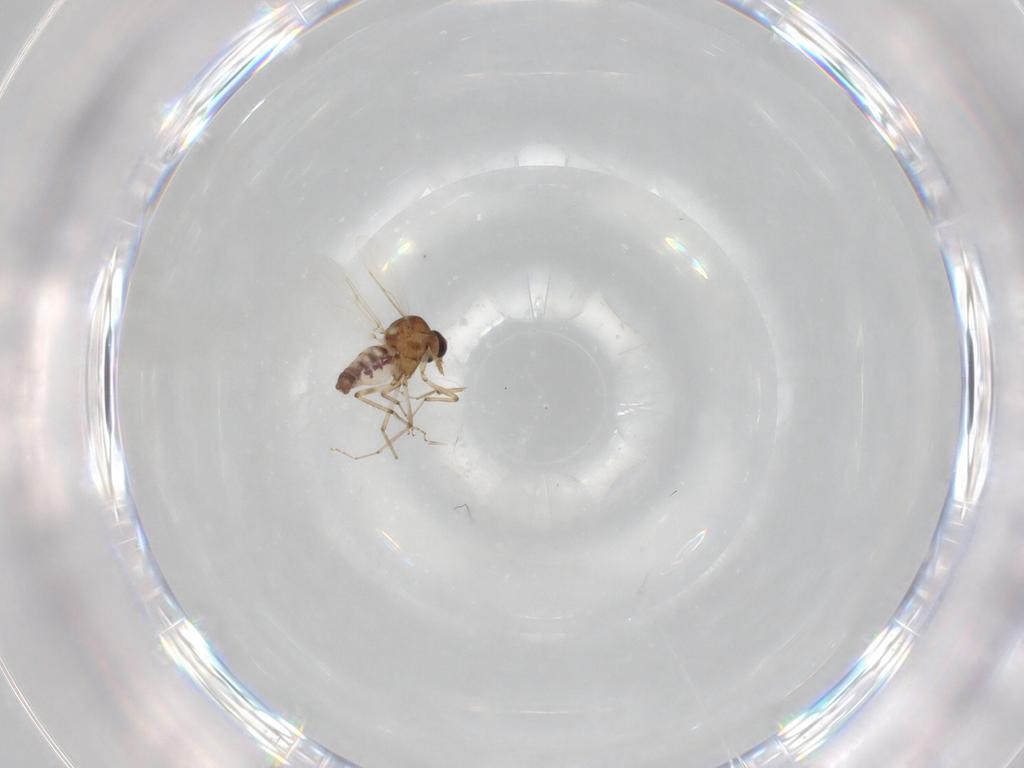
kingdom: Animalia
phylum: Arthropoda
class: Insecta
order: Diptera
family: Ceratopogonidae
